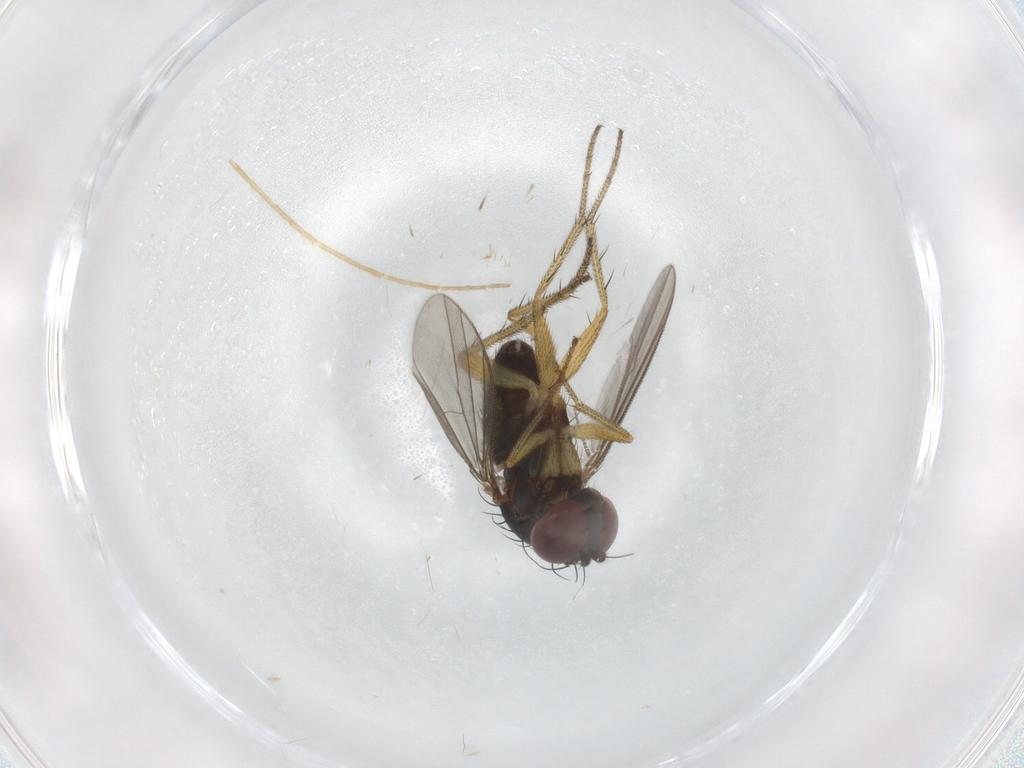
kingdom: Animalia
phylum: Arthropoda
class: Insecta
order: Diptera
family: Chironomidae
